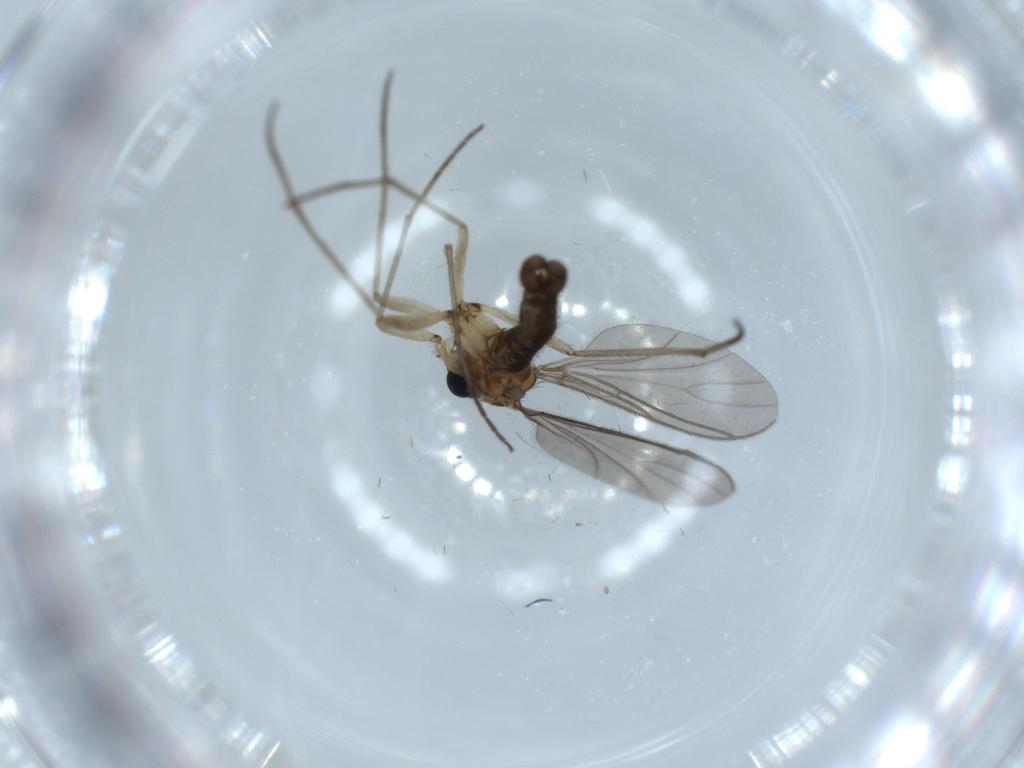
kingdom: Animalia
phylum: Arthropoda
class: Insecta
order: Diptera
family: Sciaridae
